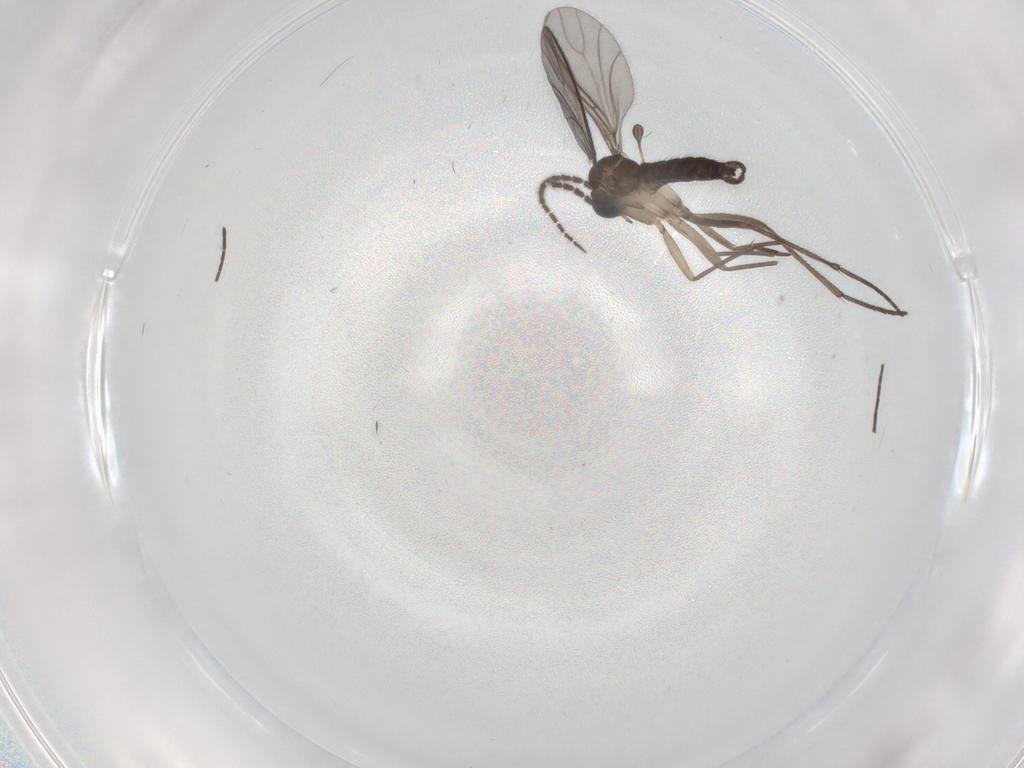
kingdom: Animalia
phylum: Arthropoda
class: Insecta
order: Diptera
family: Sciaridae
